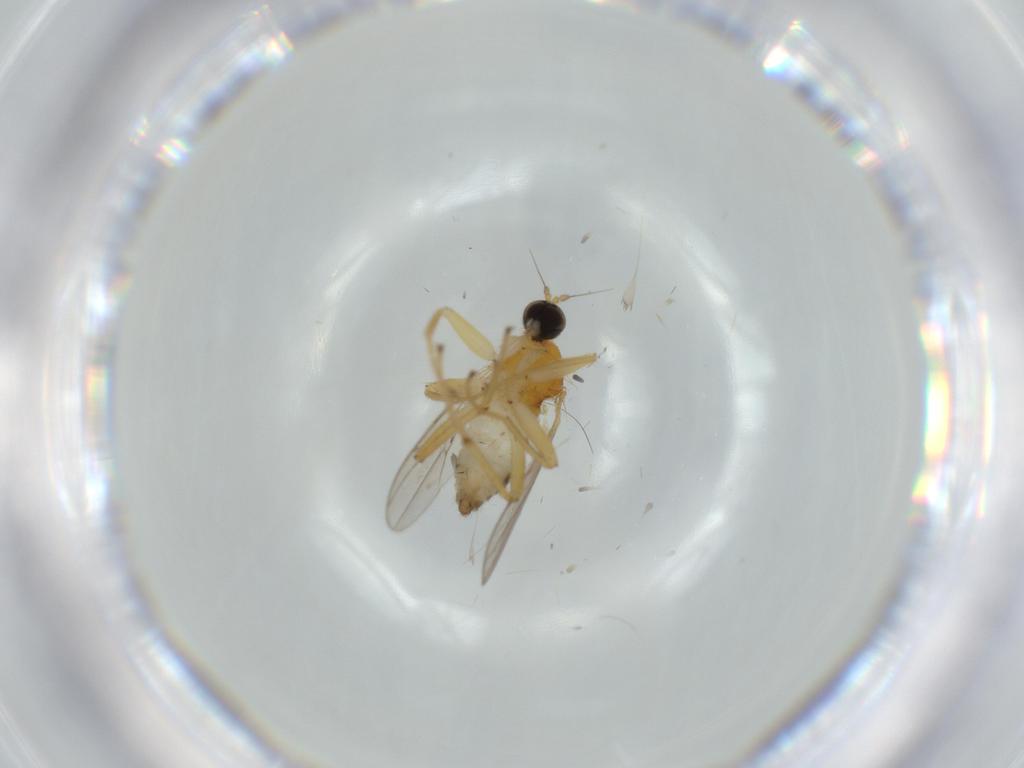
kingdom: Animalia
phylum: Arthropoda
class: Insecta
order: Diptera
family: Hybotidae
